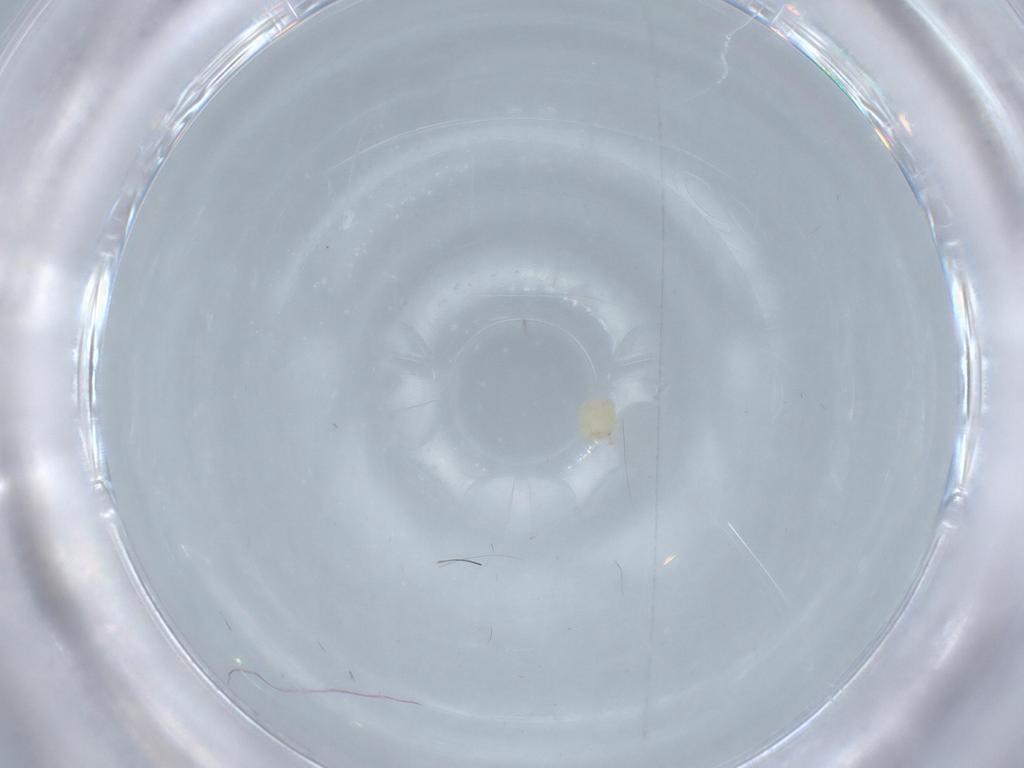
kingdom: Animalia
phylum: Arthropoda
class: Arachnida
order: Trombidiformes
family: Sperchontidae
